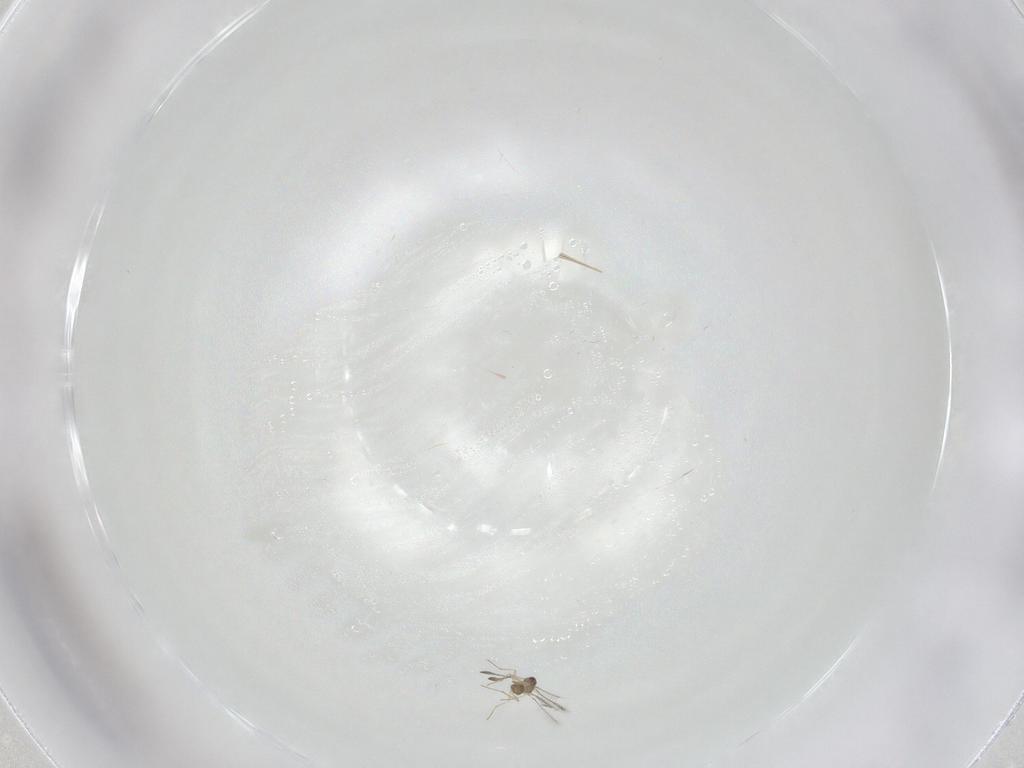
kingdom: Animalia
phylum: Arthropoda
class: Insecta
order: Hymenoptera
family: Mymaridae
